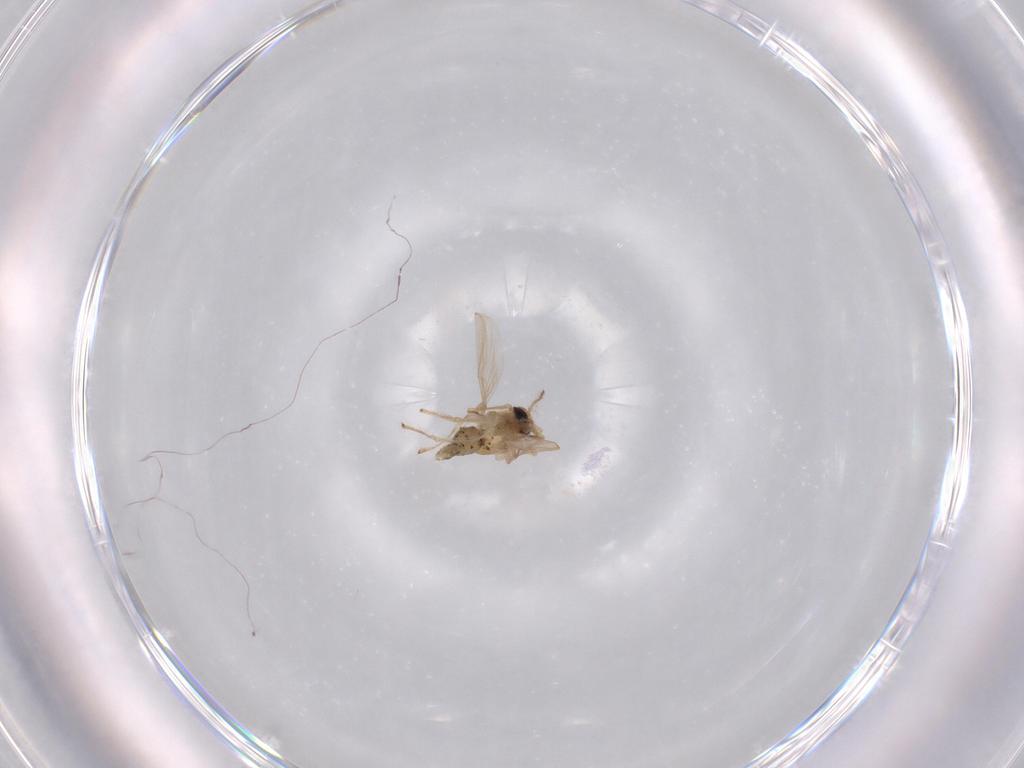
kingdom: Animalia
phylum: Arthropoda
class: Insecta
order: Diptera
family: Chironomidae
